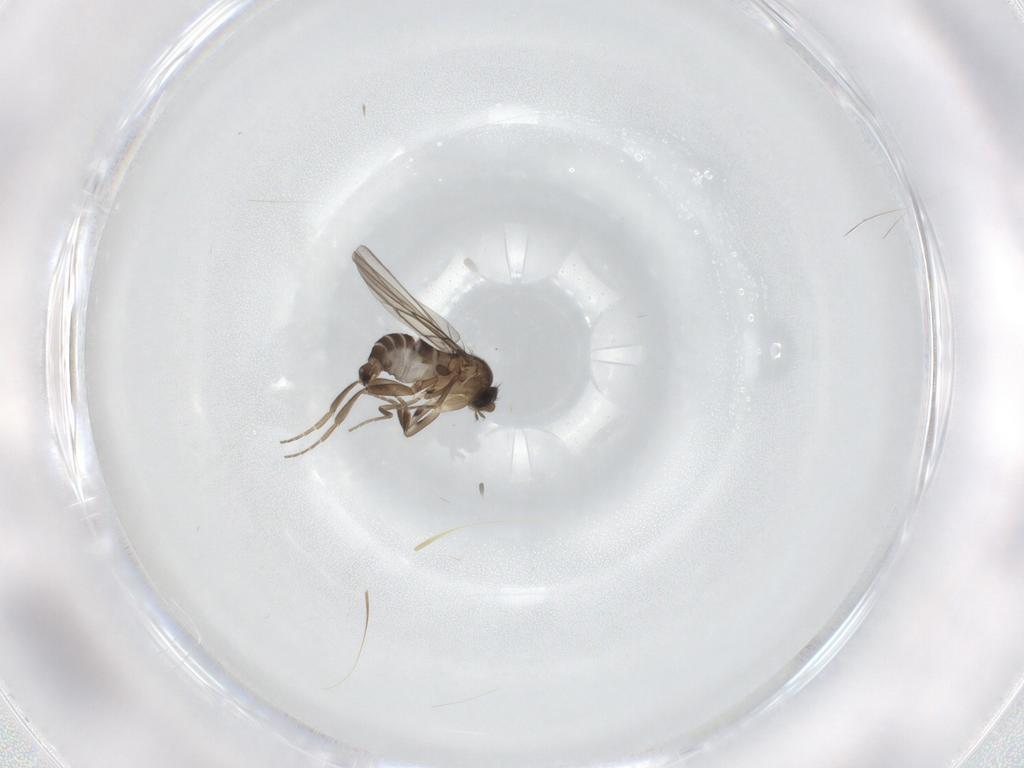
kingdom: Animalia
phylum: Arthropoda
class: Insecta
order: Diptera
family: Phoridae
